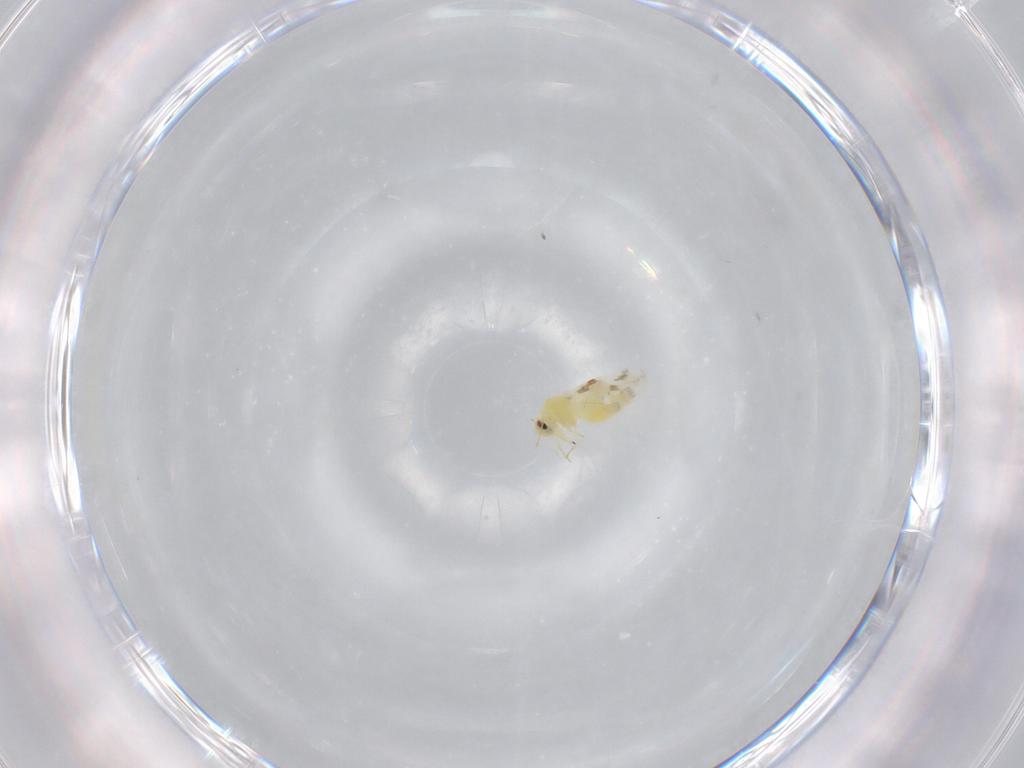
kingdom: Animalia
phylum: Arthropoda
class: Insecta
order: Hemiptera
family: Aleyrodidae
